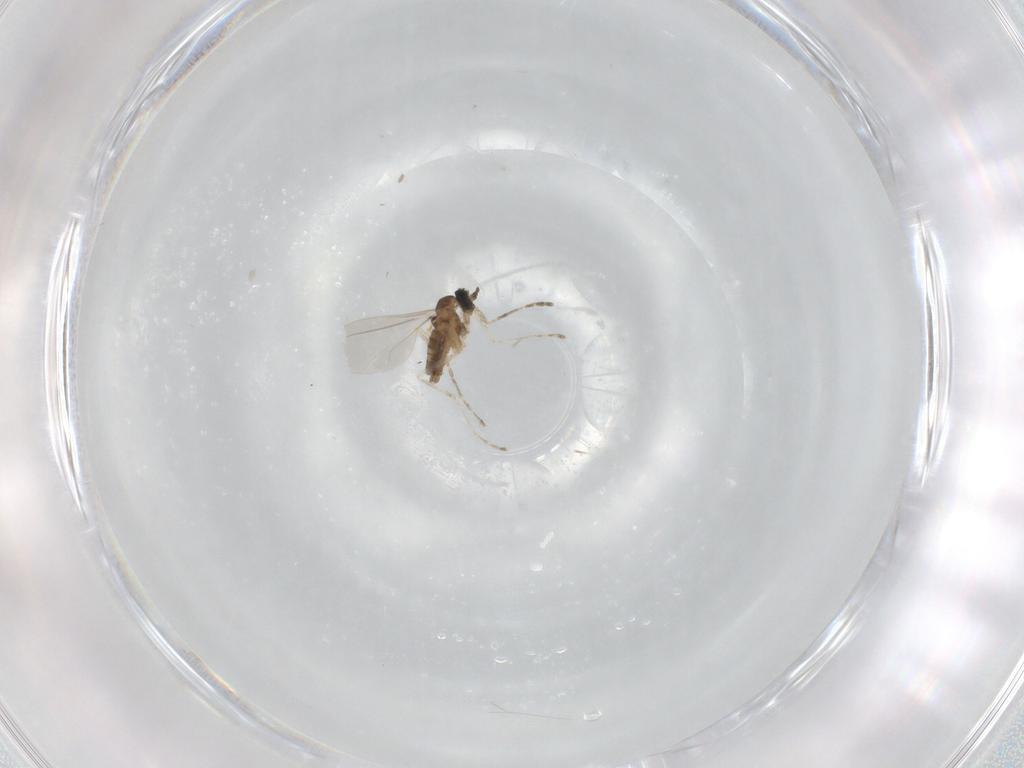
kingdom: Animalia
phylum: Arthropoda
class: Insecta
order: Diptera
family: Cecidomyiidae
